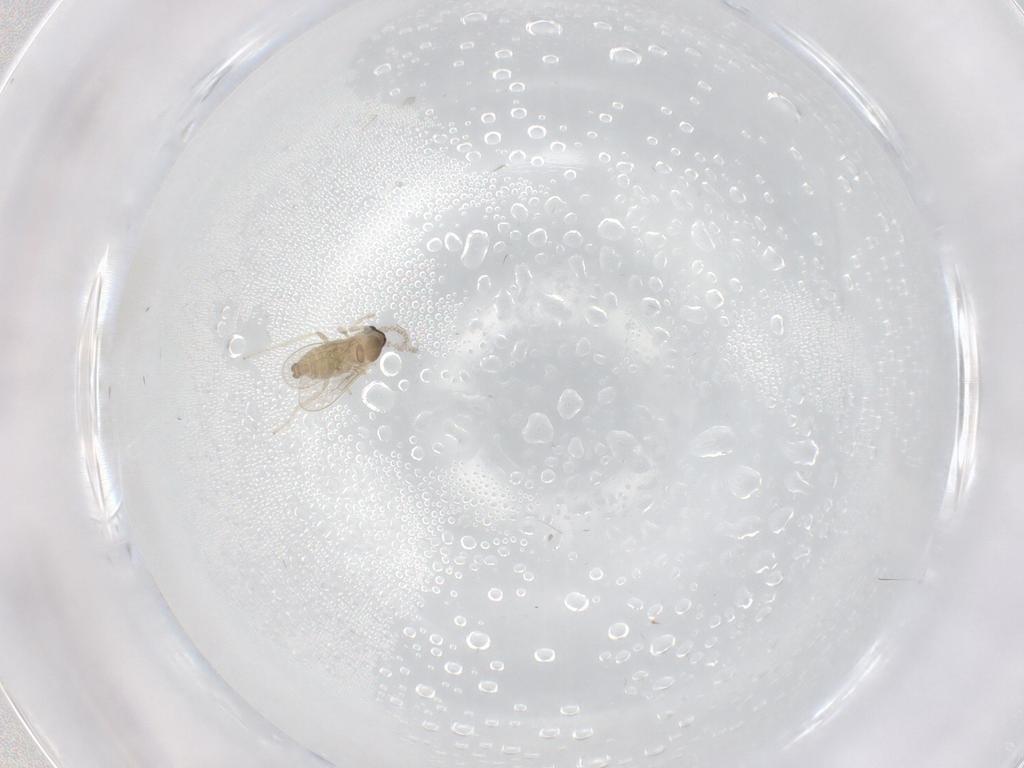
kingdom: Animalia
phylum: Arthropoda
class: Insecta
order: Diptera
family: Cecidomyiidae
